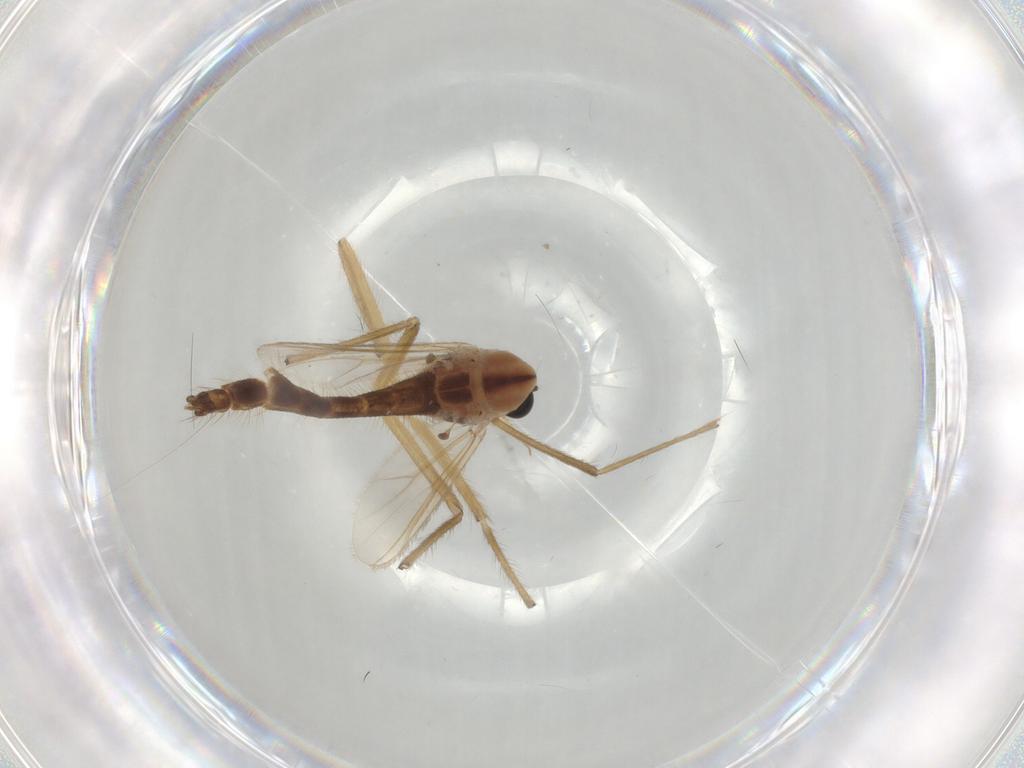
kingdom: Animalia
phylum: Arthropoda
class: Insecta
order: Diptera
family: Chironomidae
